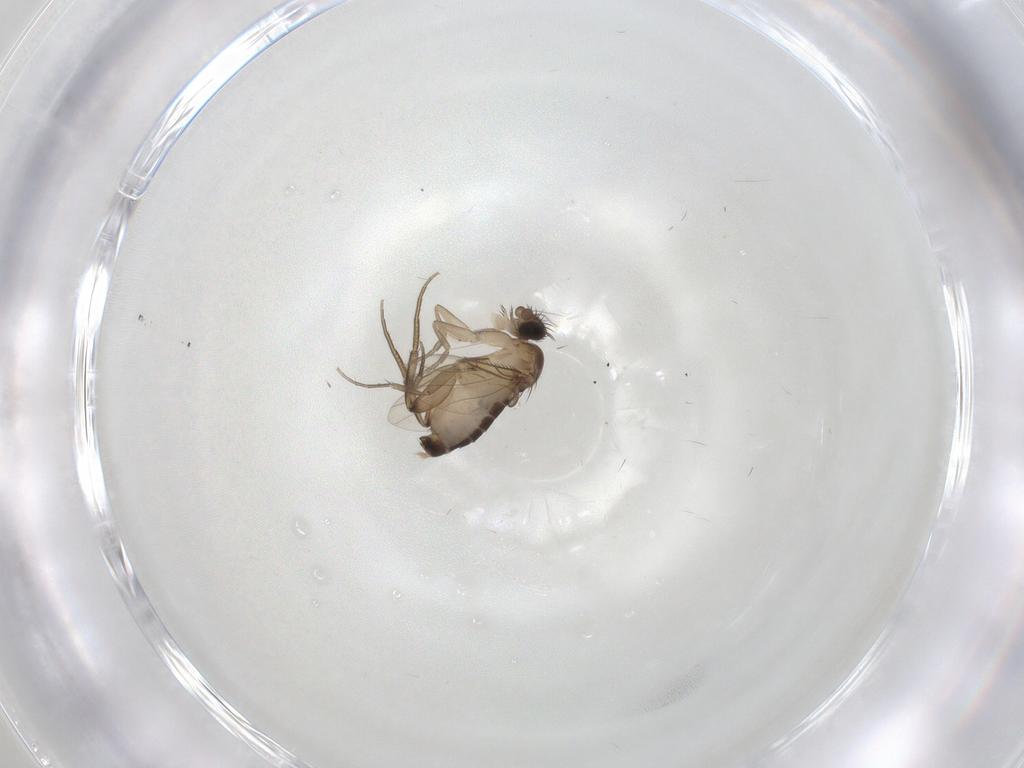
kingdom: Animalia
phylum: Arthropoda
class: Insecta
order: Diptera
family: Phoridae
